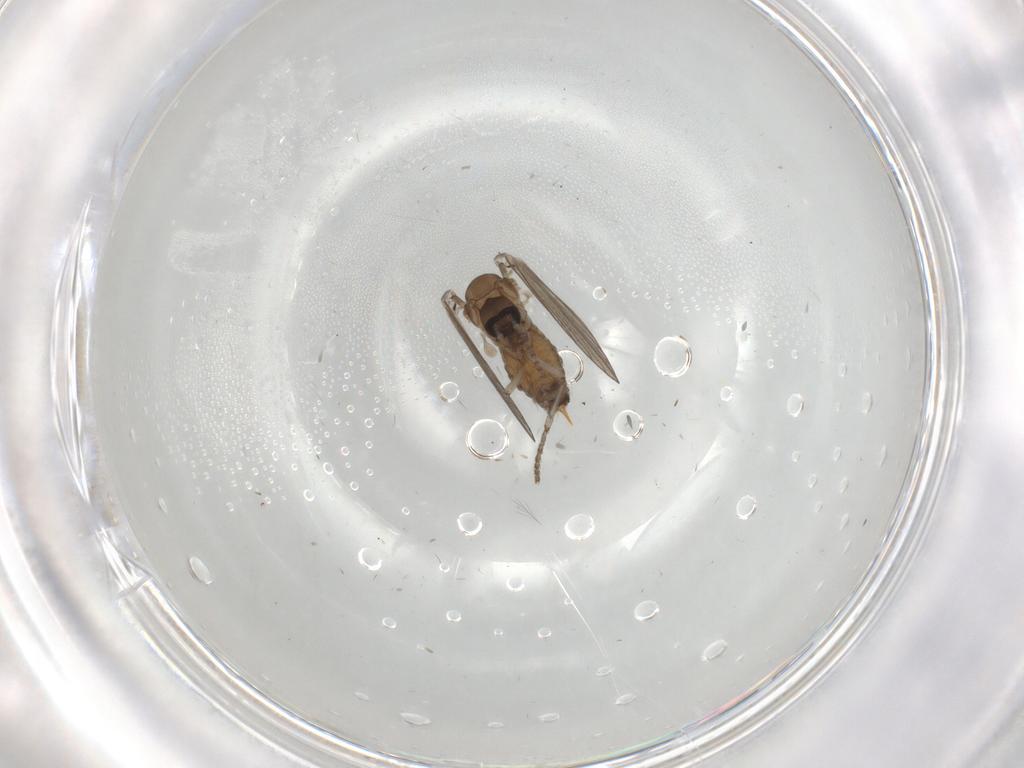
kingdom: Animalia
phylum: Arthropoda
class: Insecta
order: Diptera
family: Psychodidae
